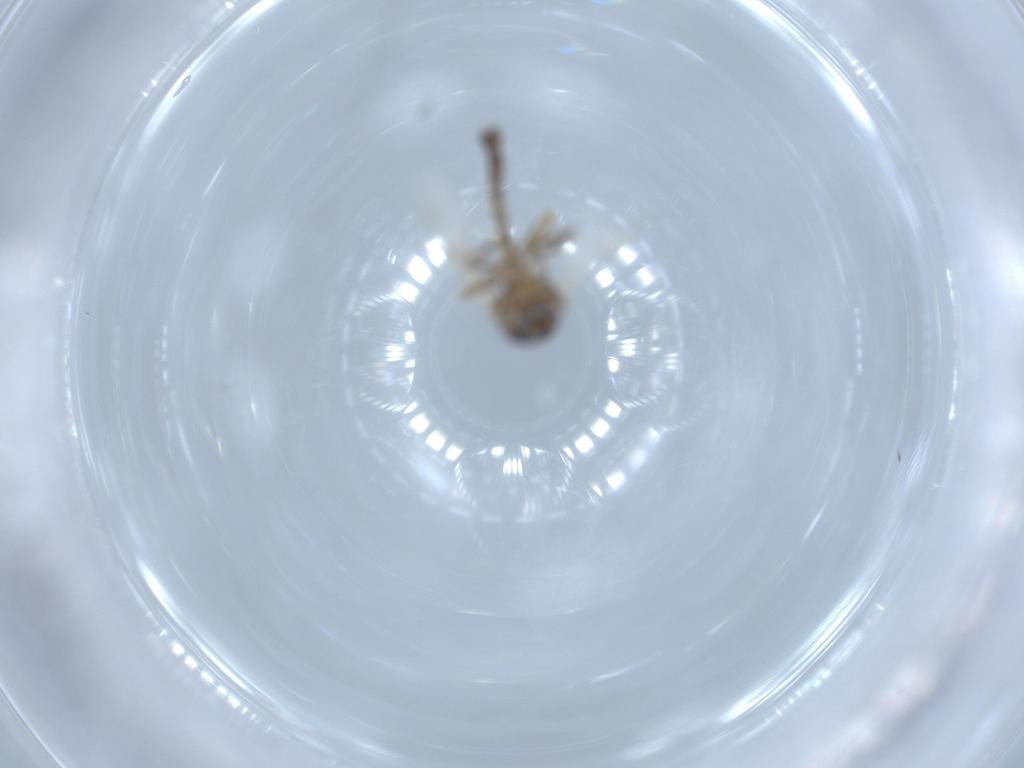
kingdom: Animalia
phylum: Arthropoda
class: Insecta
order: Diptera
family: Ceratopogonidae
